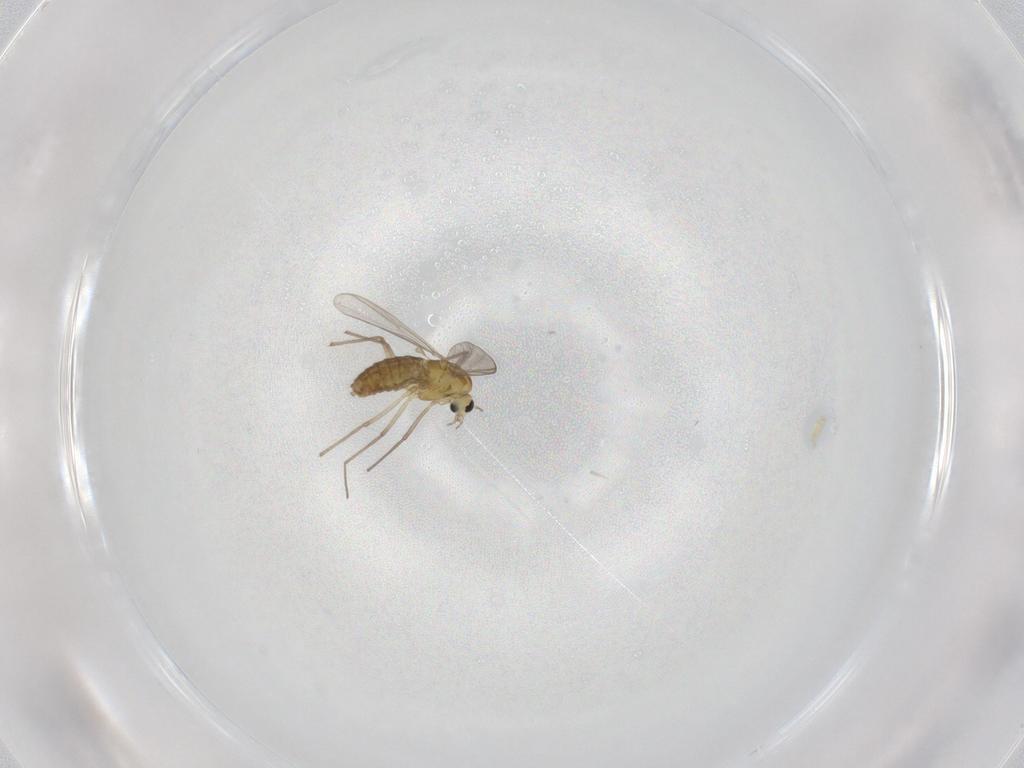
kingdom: Animalia
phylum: Arthropoda
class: Insecta
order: Diptera
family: Chironomidae
